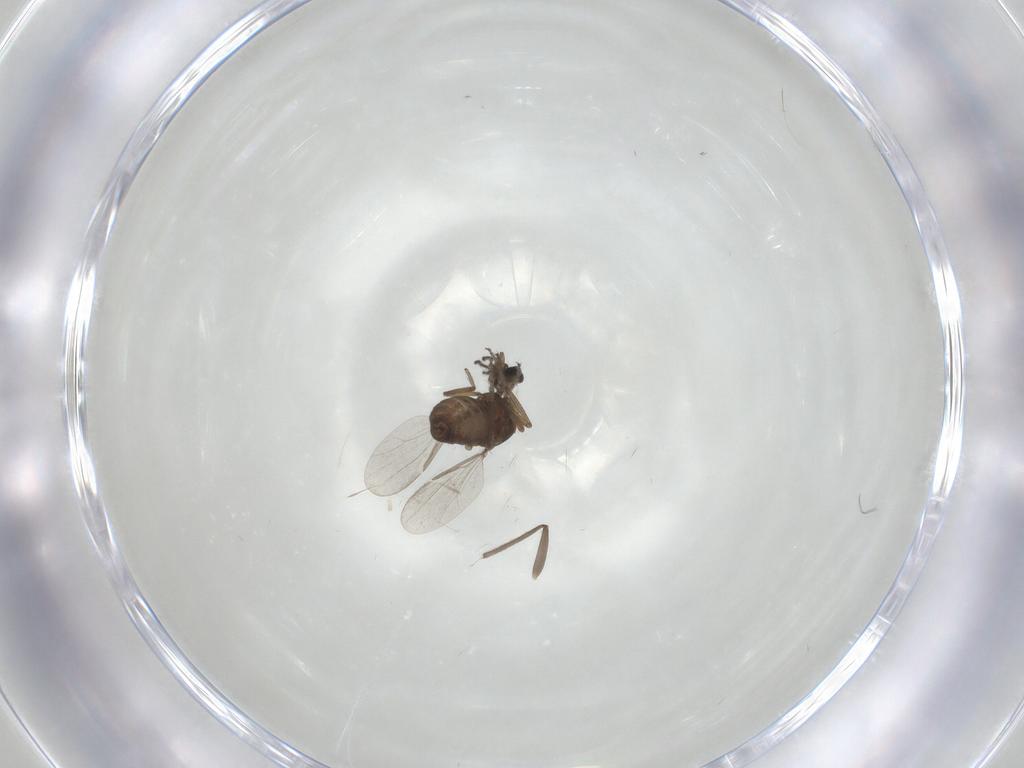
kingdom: Animalia
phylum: Arthropoda
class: Insecta
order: Diptera
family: Ceratopogonidae
